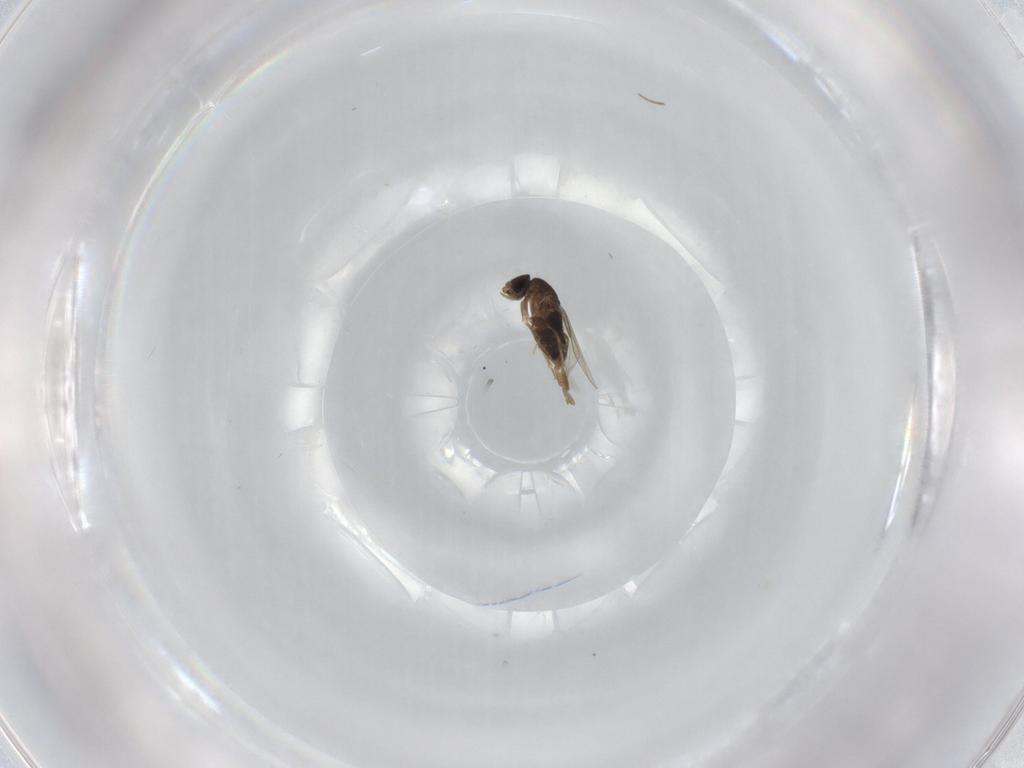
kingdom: Animalia
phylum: Arthropoda
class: Insecta
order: Diptera
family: Phoridae
